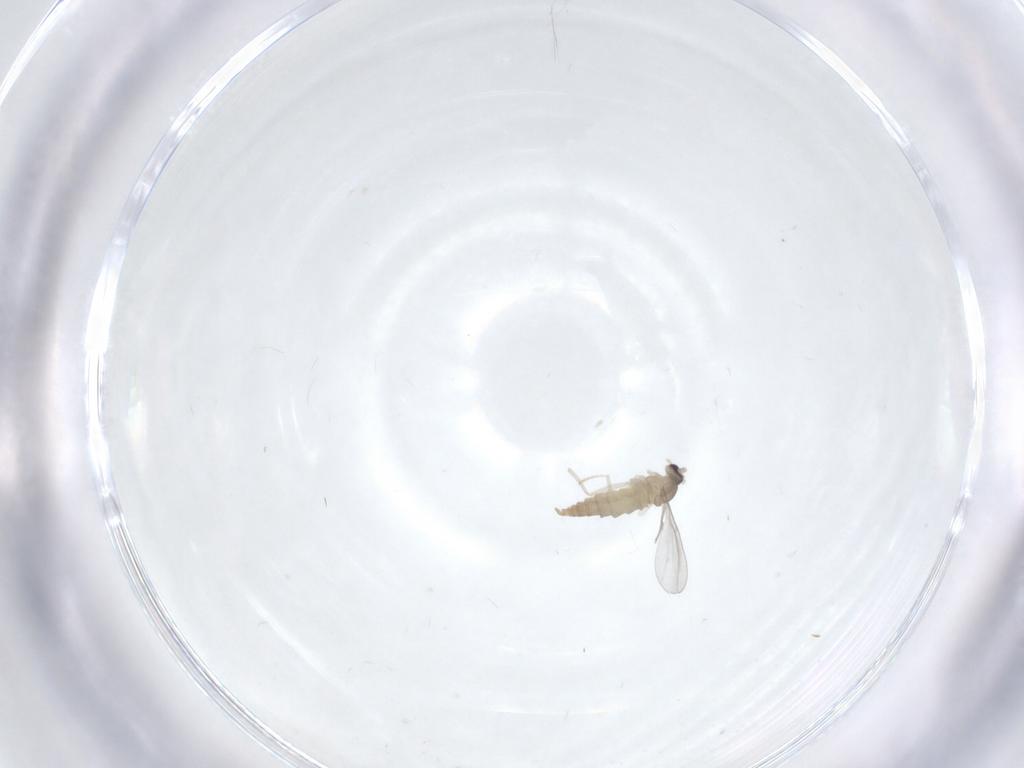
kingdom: Animalia
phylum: Arthropoda
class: Insecta
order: Diptera
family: Cecidomyiidae
